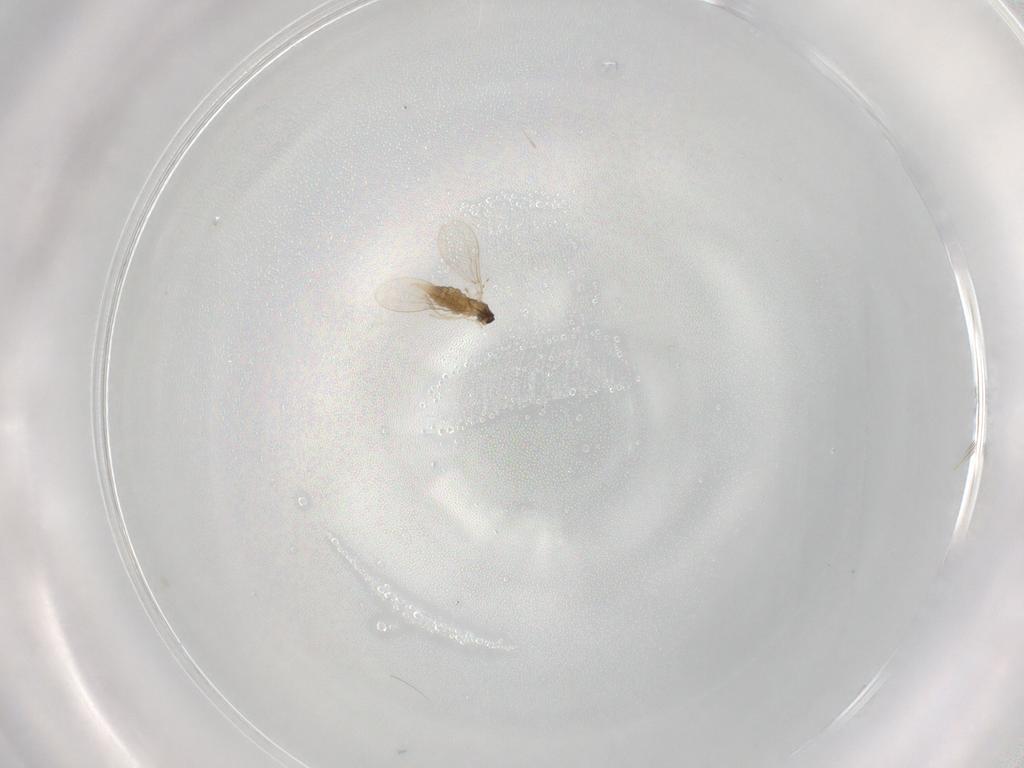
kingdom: Animalia
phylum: Arthropoda
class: Insecta
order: Diptera
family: Cecidomyiidae
